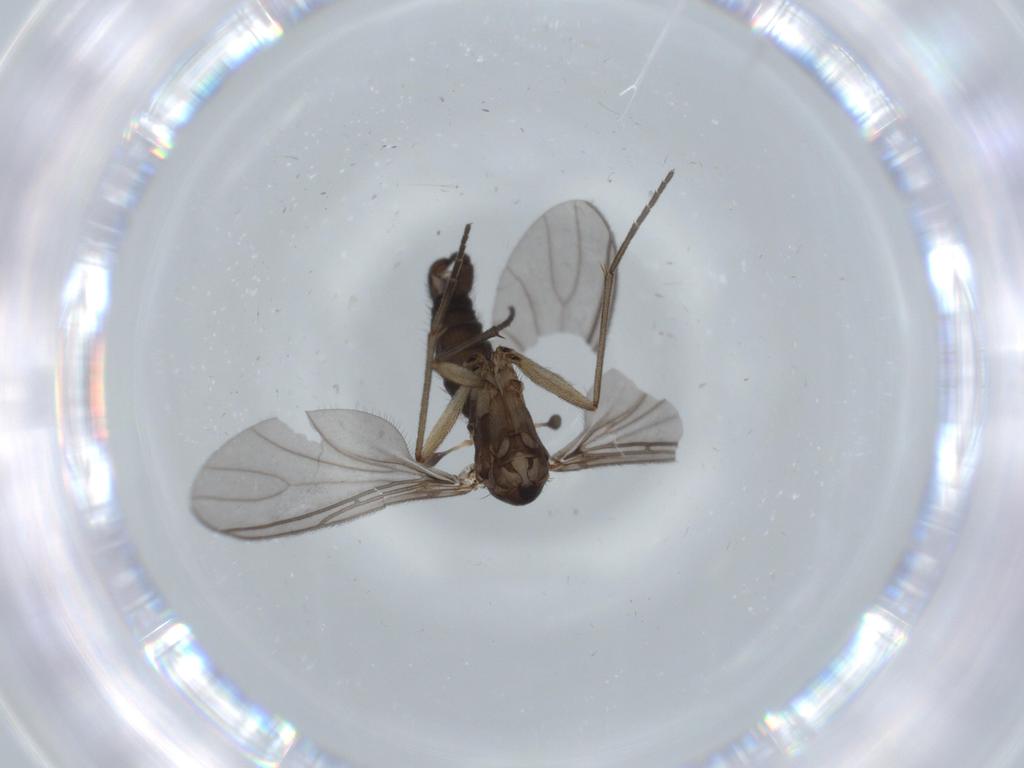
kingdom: Animalia
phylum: Arthropoda
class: Insecta
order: Diptera
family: Sciaridae
